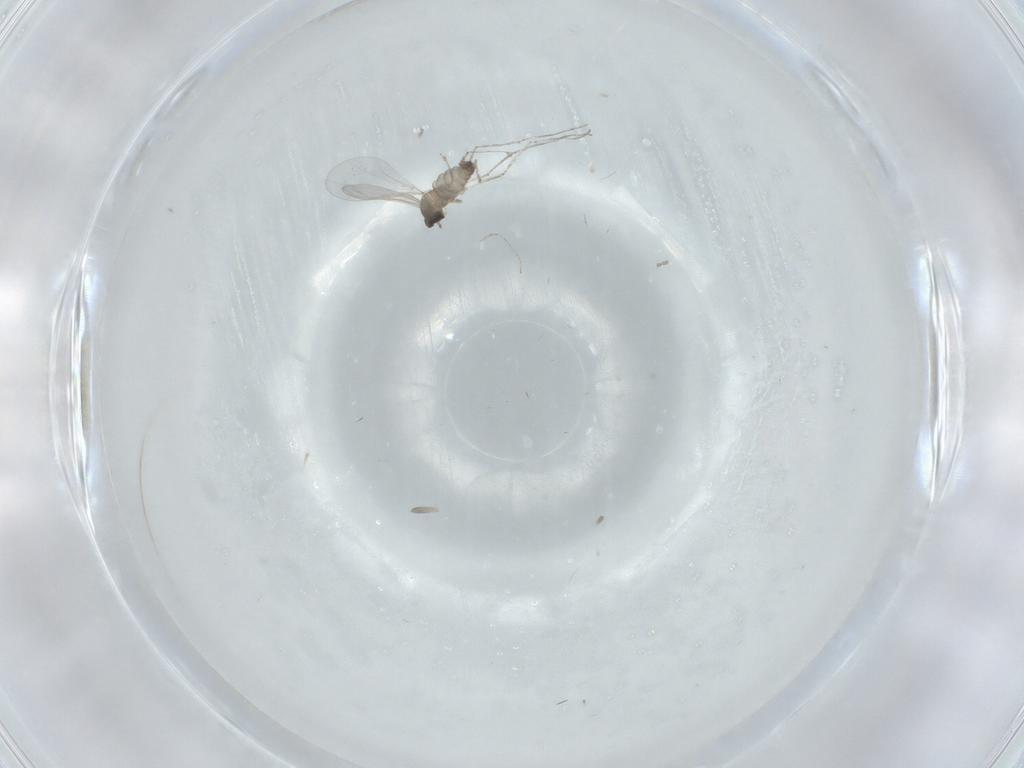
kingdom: Animalia
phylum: Arthropoda
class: Insecta
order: Diptera
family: Cecidomyiidae
